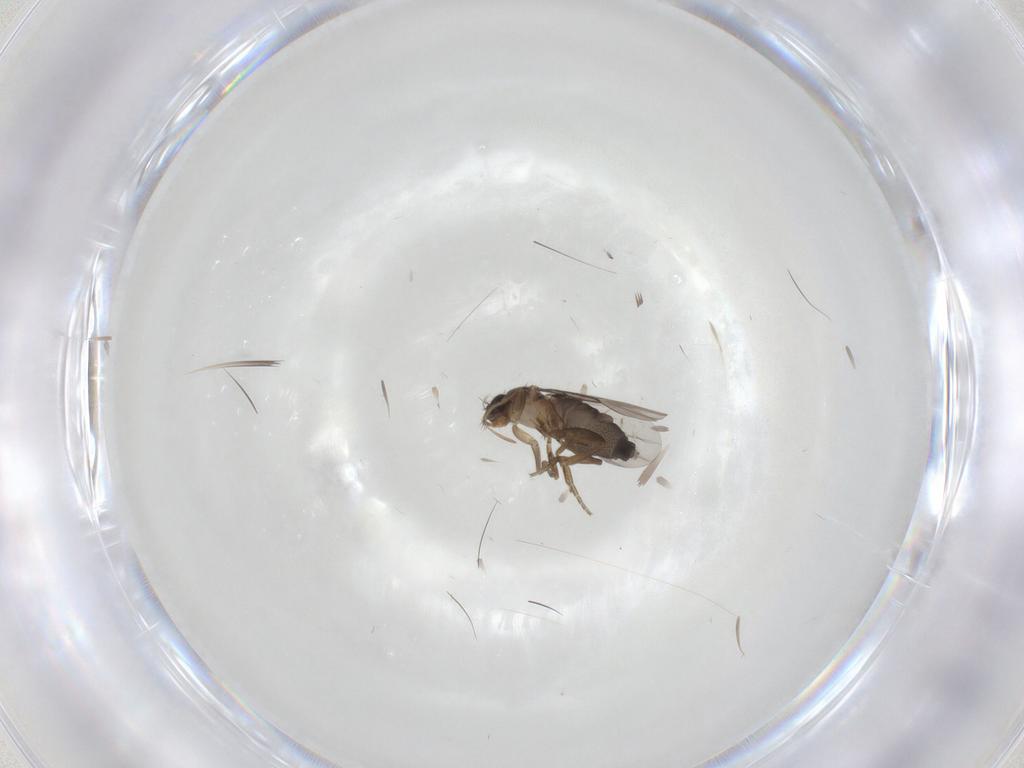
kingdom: Animalia
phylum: Arthropoda
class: Insecta
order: Diptera
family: Phoridae
